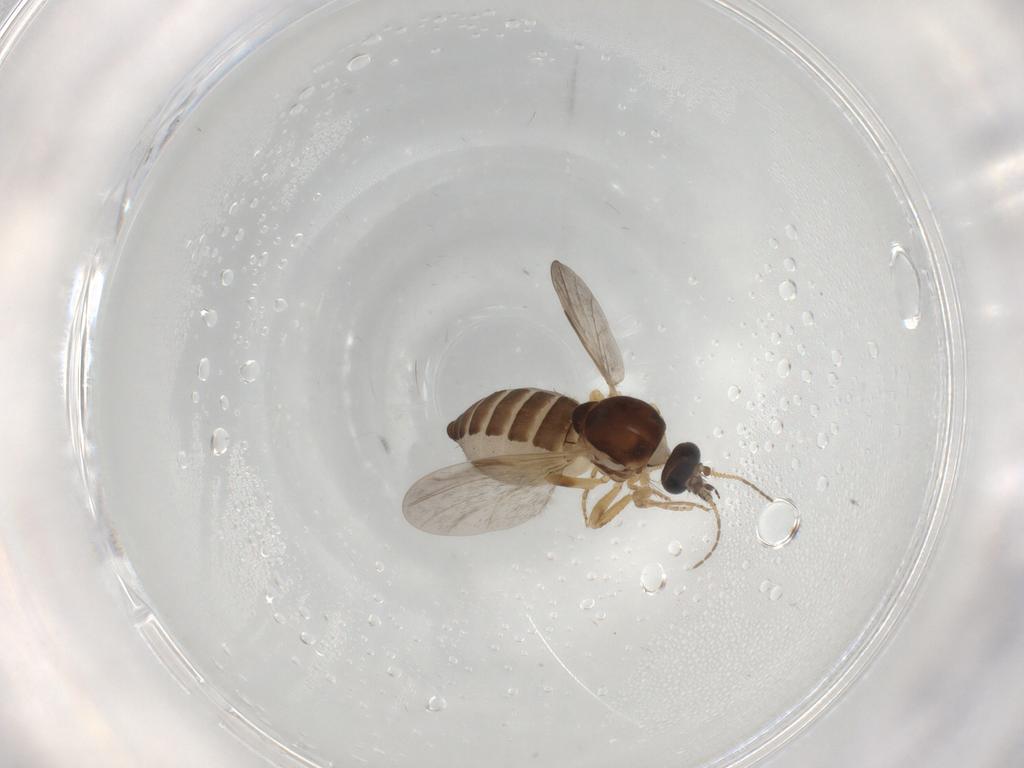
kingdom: Animalia
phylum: Arthropoda
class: Insecta
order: Diptera
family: Ceratopogonidae
